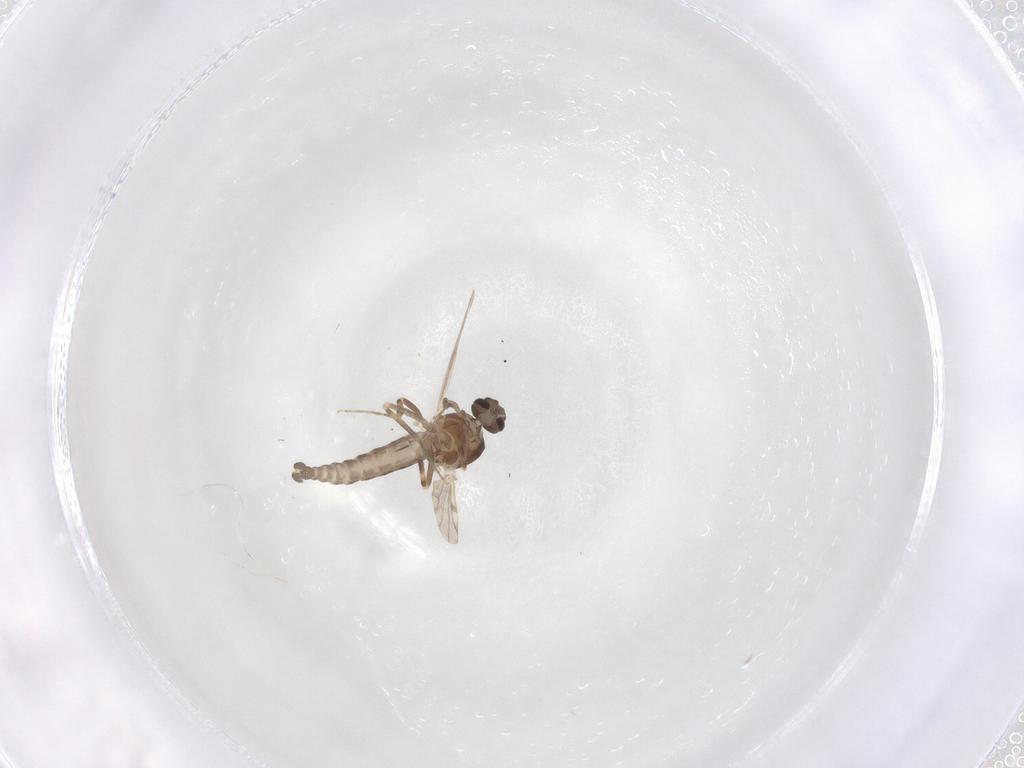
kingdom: Animalia
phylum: Arthropoda
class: Insecta
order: Diptera
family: Ceratopogonidae
